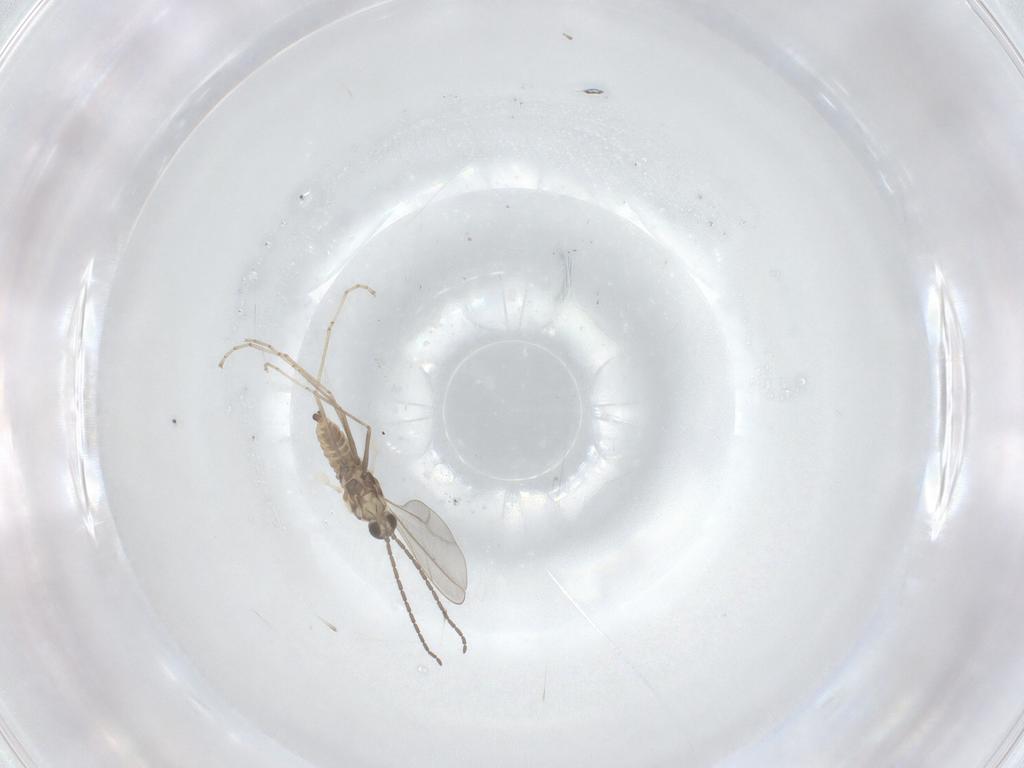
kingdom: Animalia
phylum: Arthropoda
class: Insecta
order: Diptera
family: Cecidomyiidae
